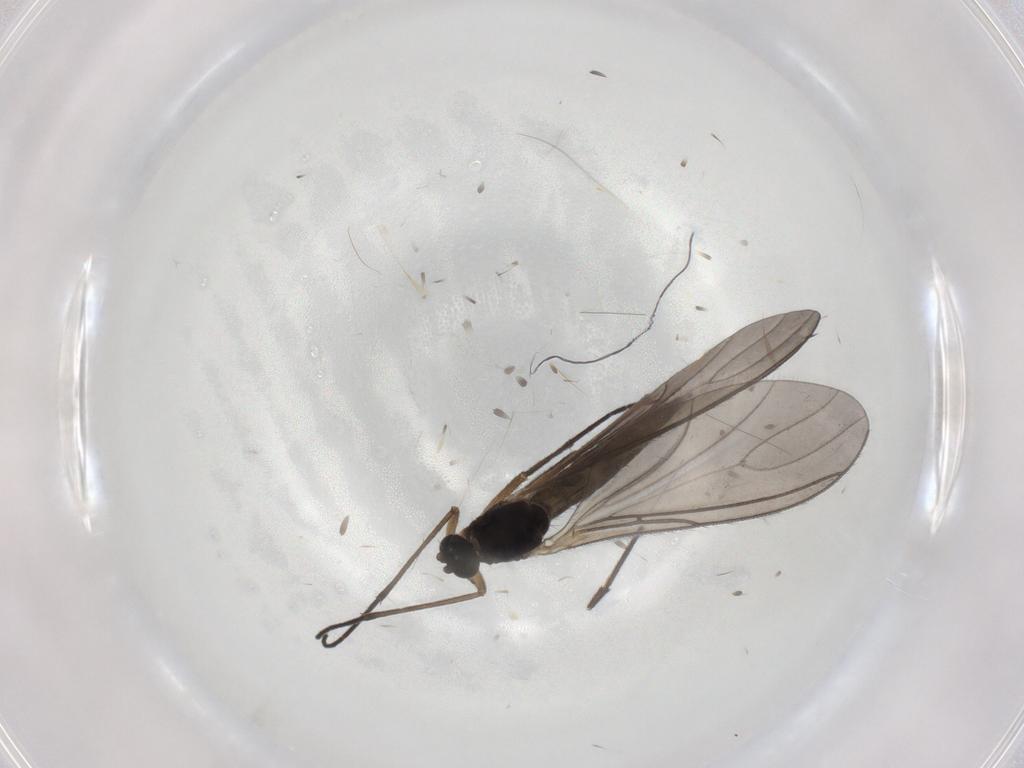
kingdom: Animalia
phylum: Arthropoda
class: Insecta
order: Diptera
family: Sciaridae
